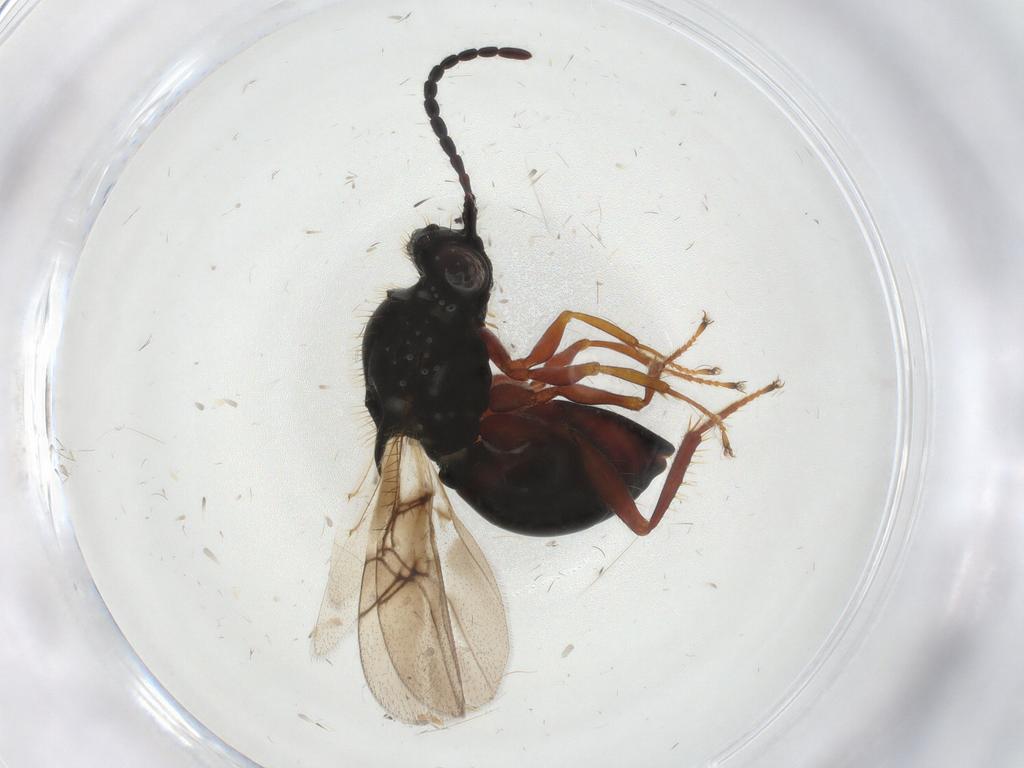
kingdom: Animalia
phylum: Arthropoda
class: Insecta
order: Hymenoptera
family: Figitidae
